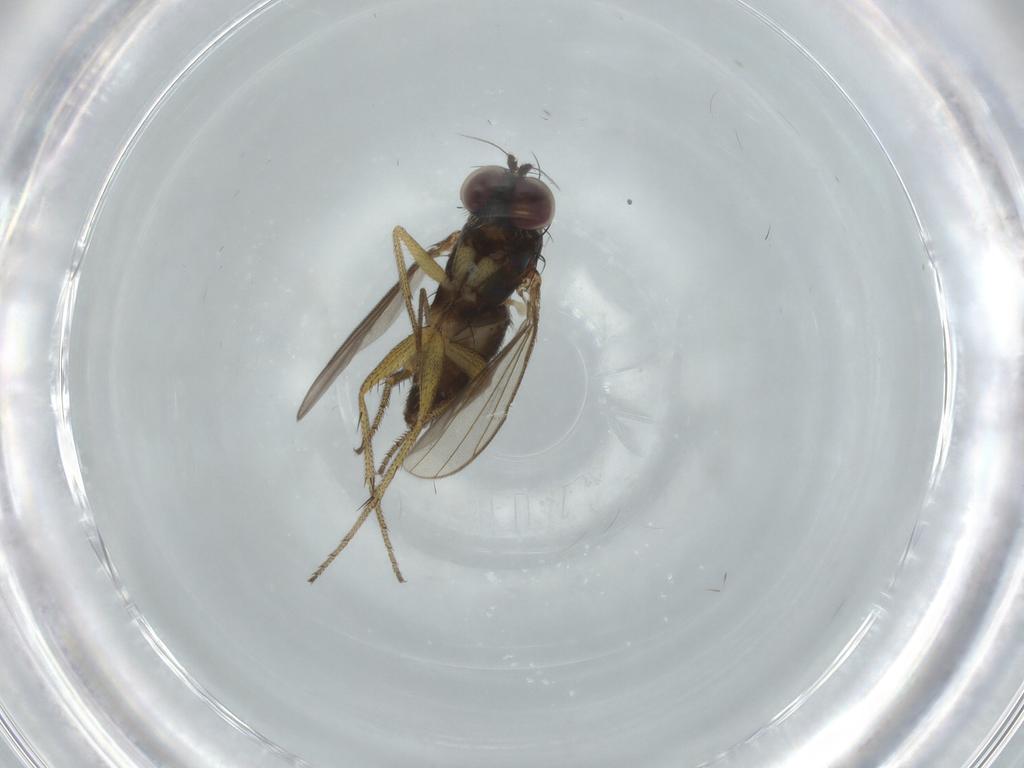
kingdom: Animalia
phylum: Arthropoda
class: Insecta
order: Diptera
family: Dolichopodidae
